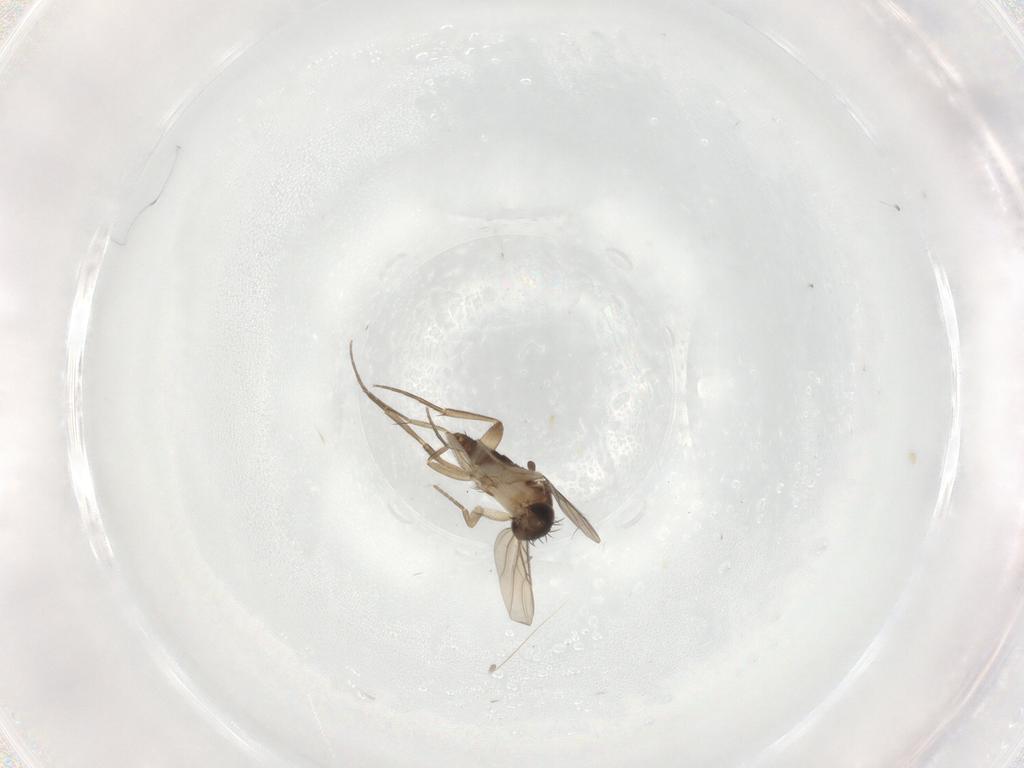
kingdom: Animalia
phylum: Arthropoda
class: Insecta
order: Diptera
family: Phoridae
